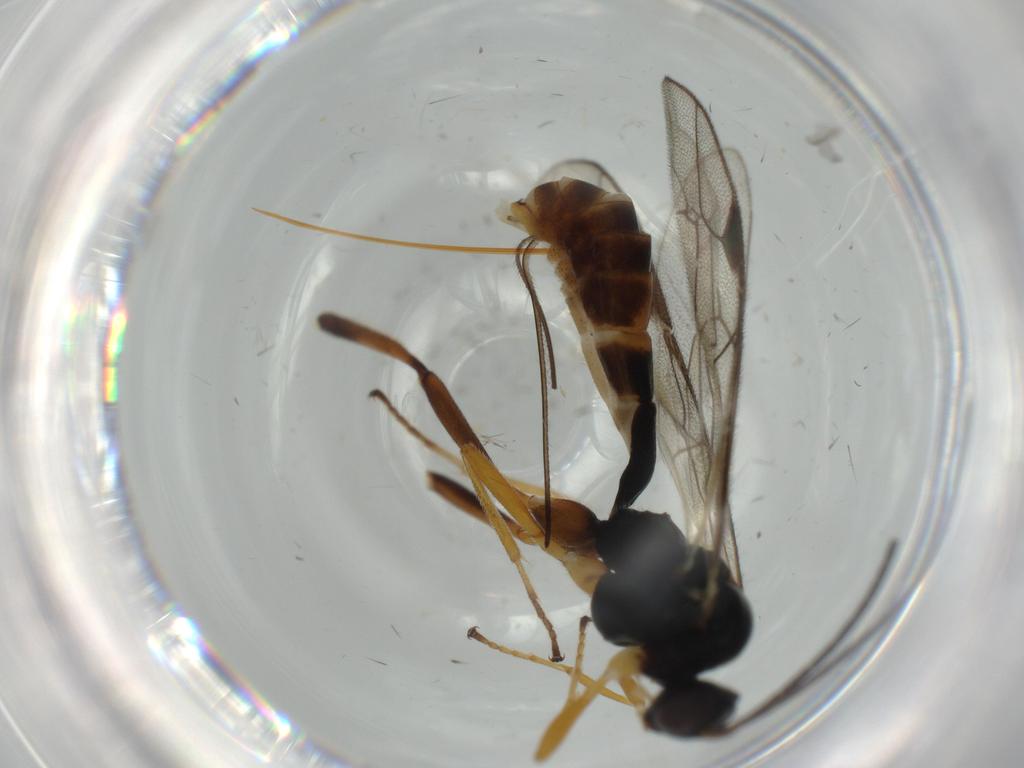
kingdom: Animalia
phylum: Arthropoda
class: Insecta
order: Hymenoptera
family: Diapriidae
